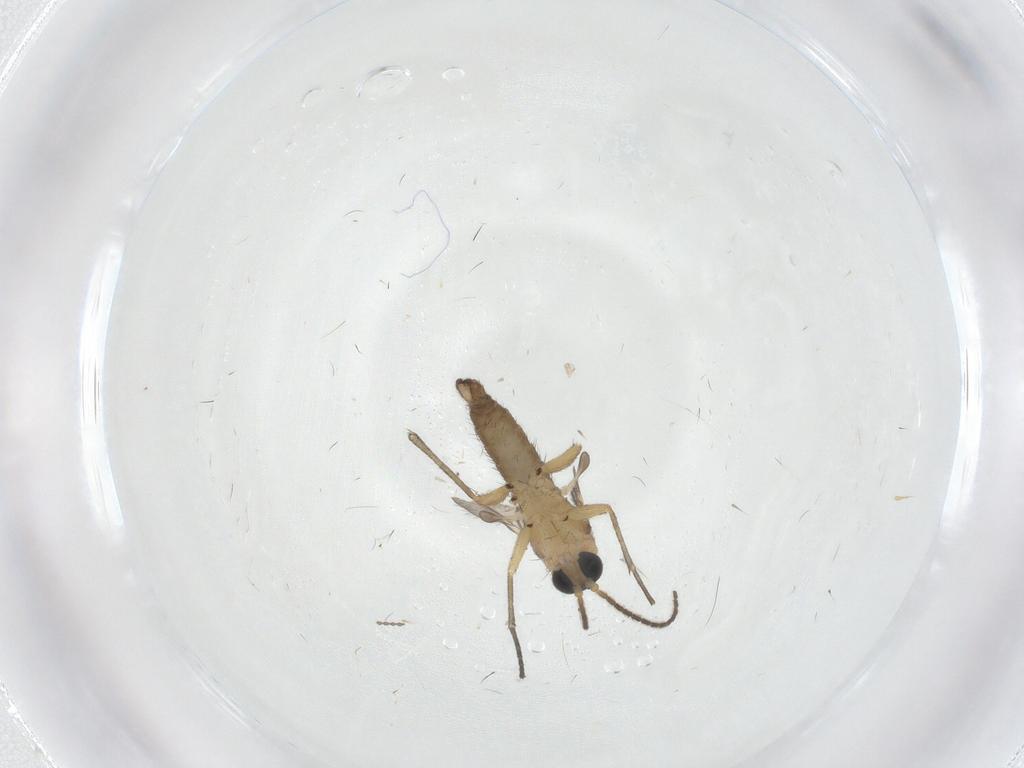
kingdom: Animalia
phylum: Arthropoda
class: Insecta
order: Diptera
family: Sciaridae
